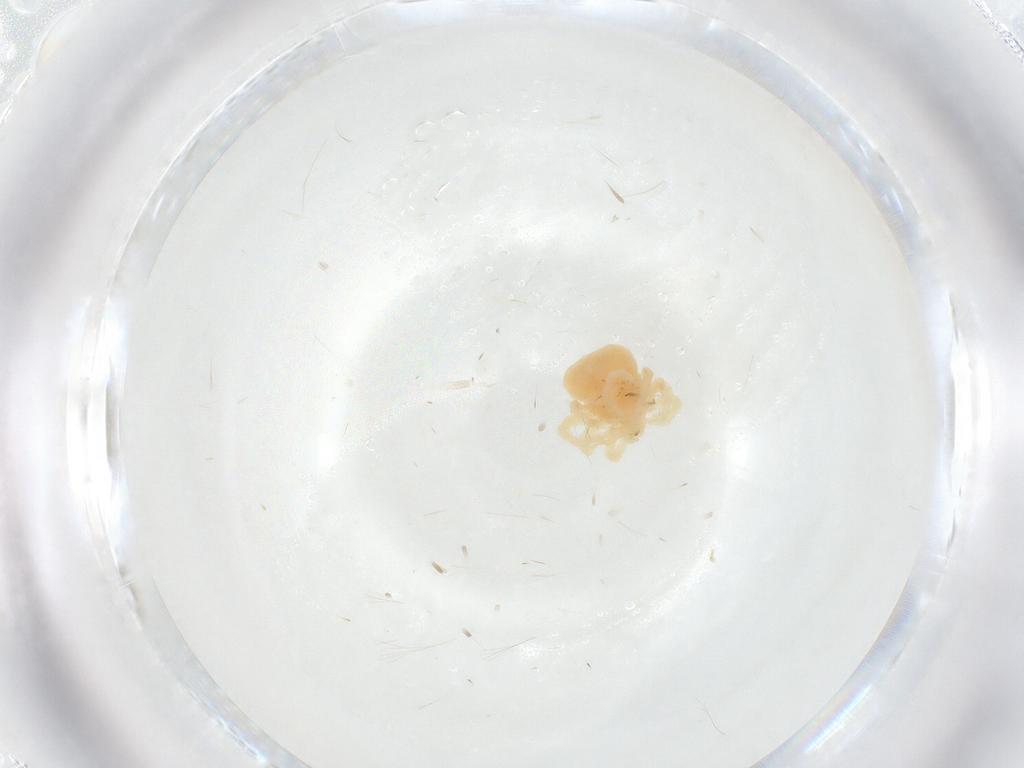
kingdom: Animalia
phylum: Arthropoda
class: Arachnida
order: Trombidiformes
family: Anystidae
